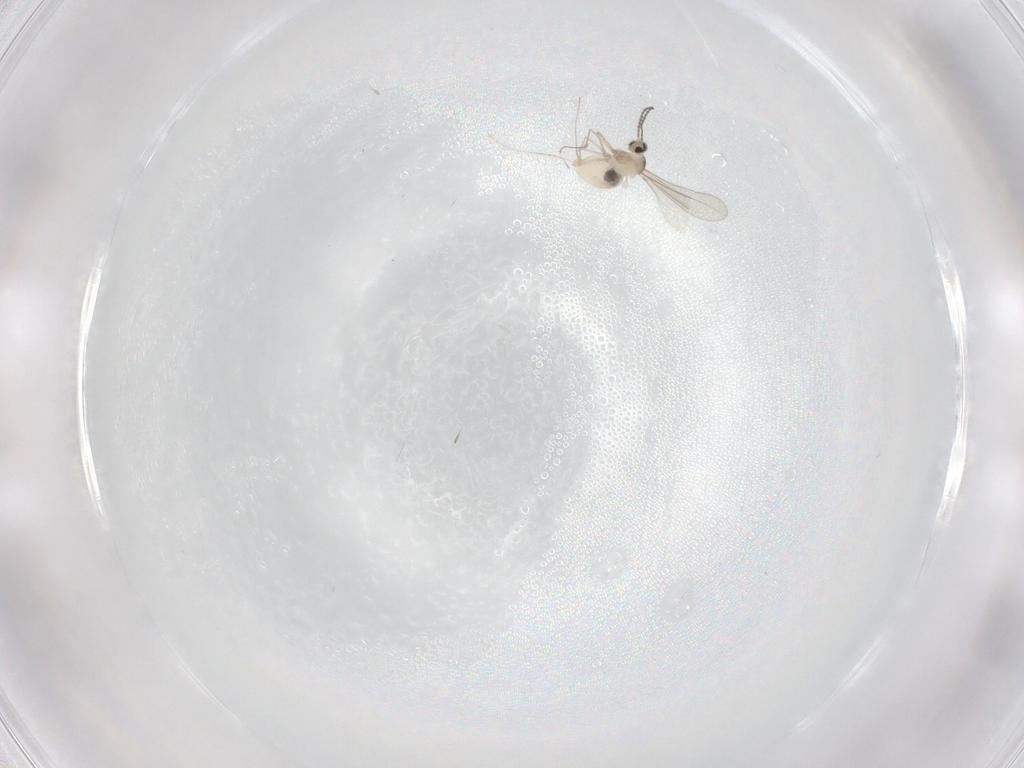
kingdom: Animalia
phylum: Arthropoda
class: Insecta
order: Diptera
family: Cecidomyiidae
